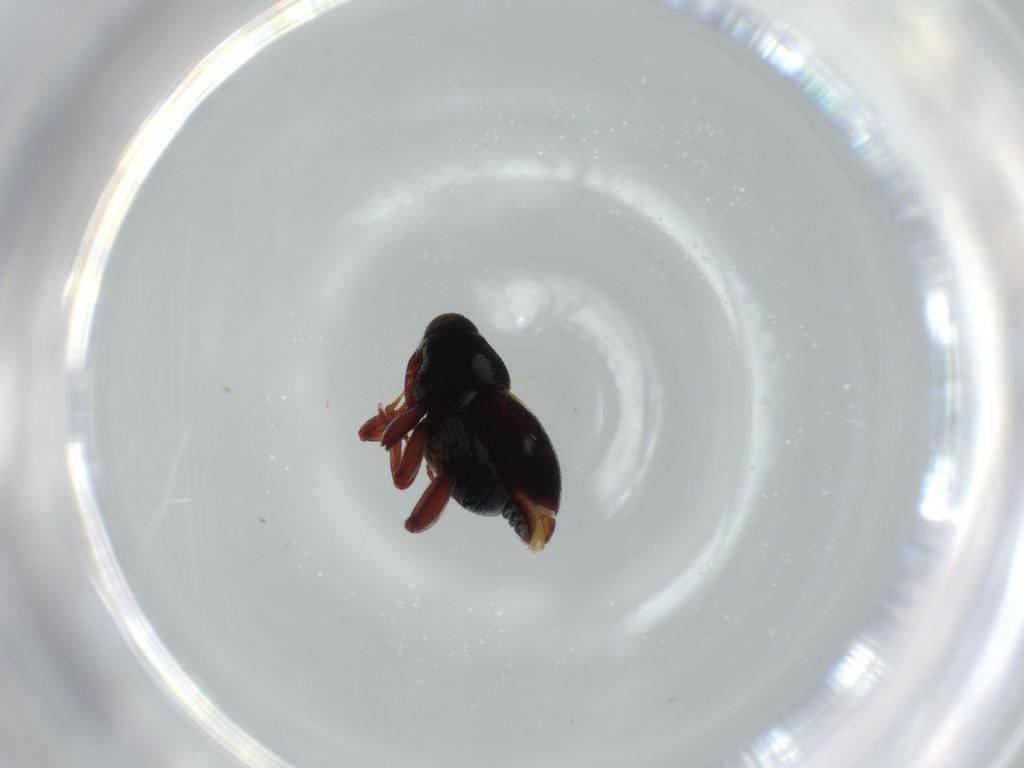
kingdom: Animalia
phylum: Arthropoda
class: Insecta
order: Coleoptera
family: Curculionidae
